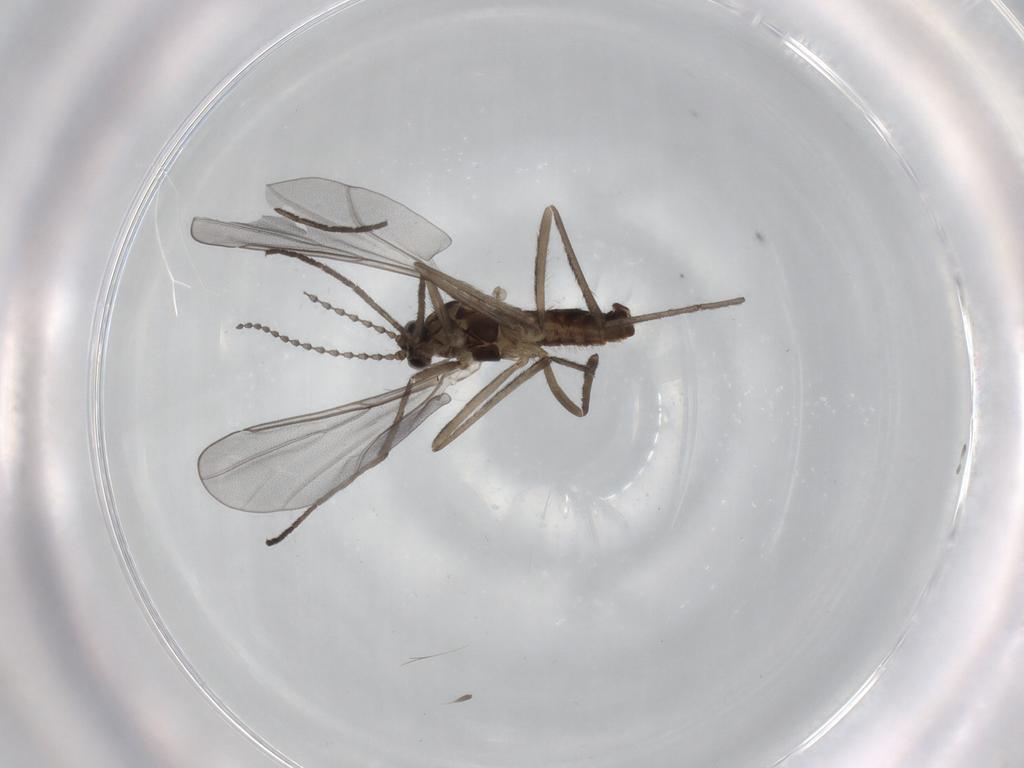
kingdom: Animalia
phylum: Arthropoda
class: Insecta
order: Diptera
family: Cecidomyiidae
